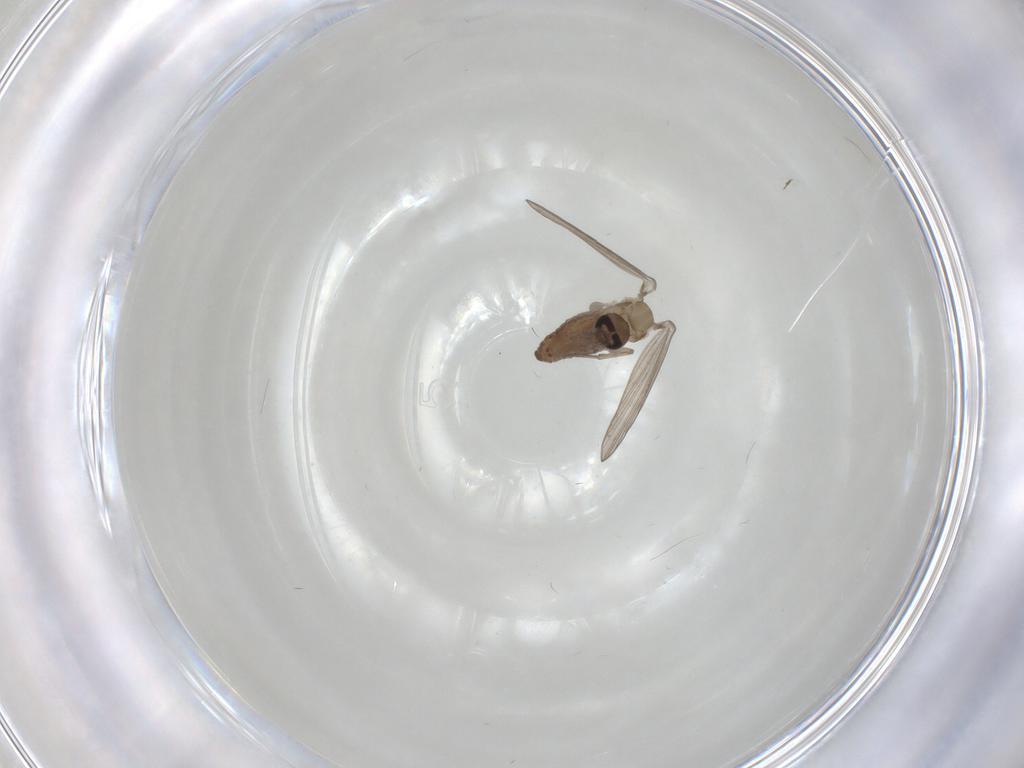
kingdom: Animalia
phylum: Arthropoda
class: Insecta
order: Diptera
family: Psychodidae
